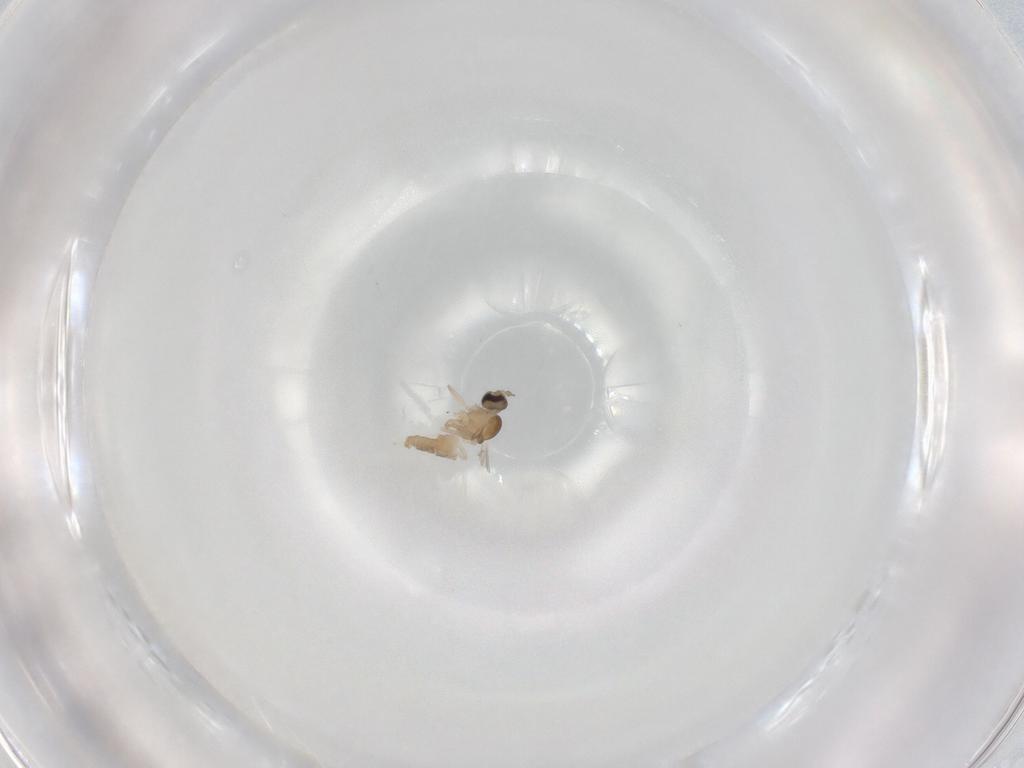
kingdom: Animalia
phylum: Arthropoda
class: Insecta
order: Diptera
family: Cecidomyiidae
